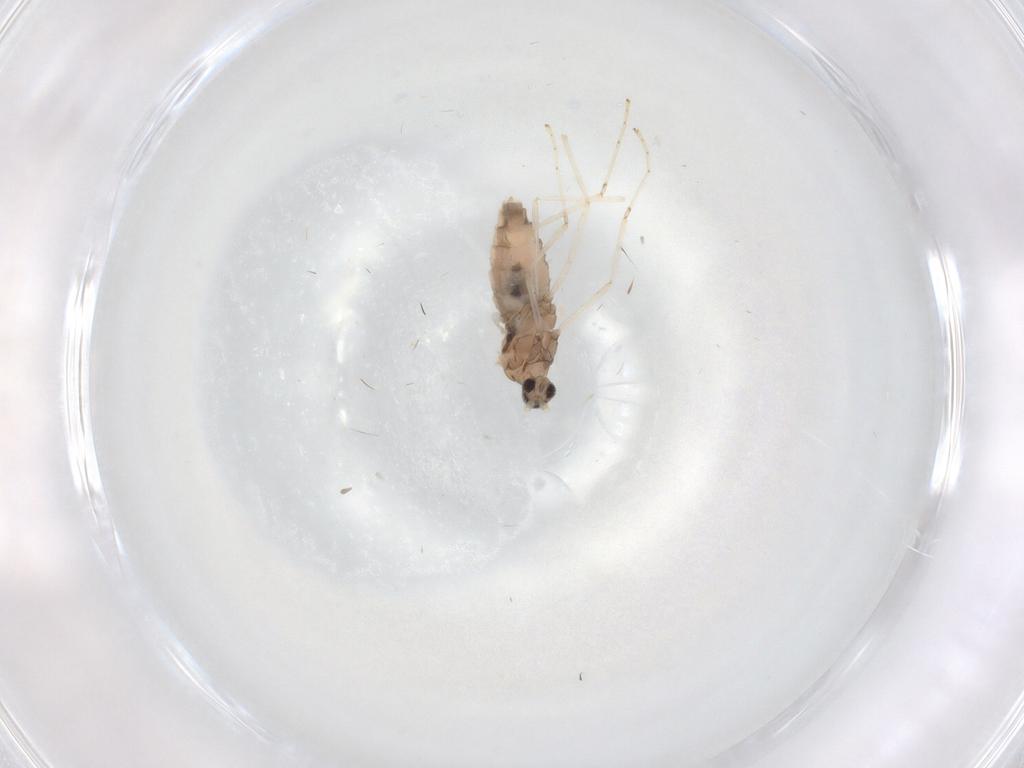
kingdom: Animalia
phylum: Arthropoda
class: Insecta
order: Diptera
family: Cecidomyiidae
